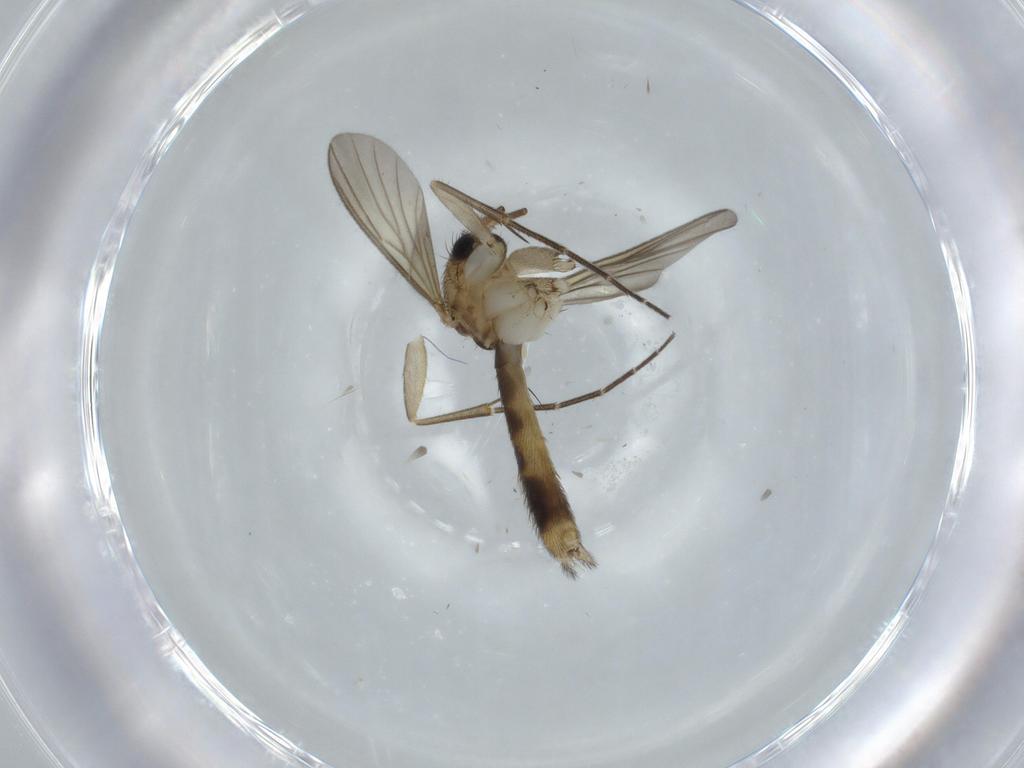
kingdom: Animalia
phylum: Arthropoda
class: Insecta
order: Diptera
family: Mycetophilidae
